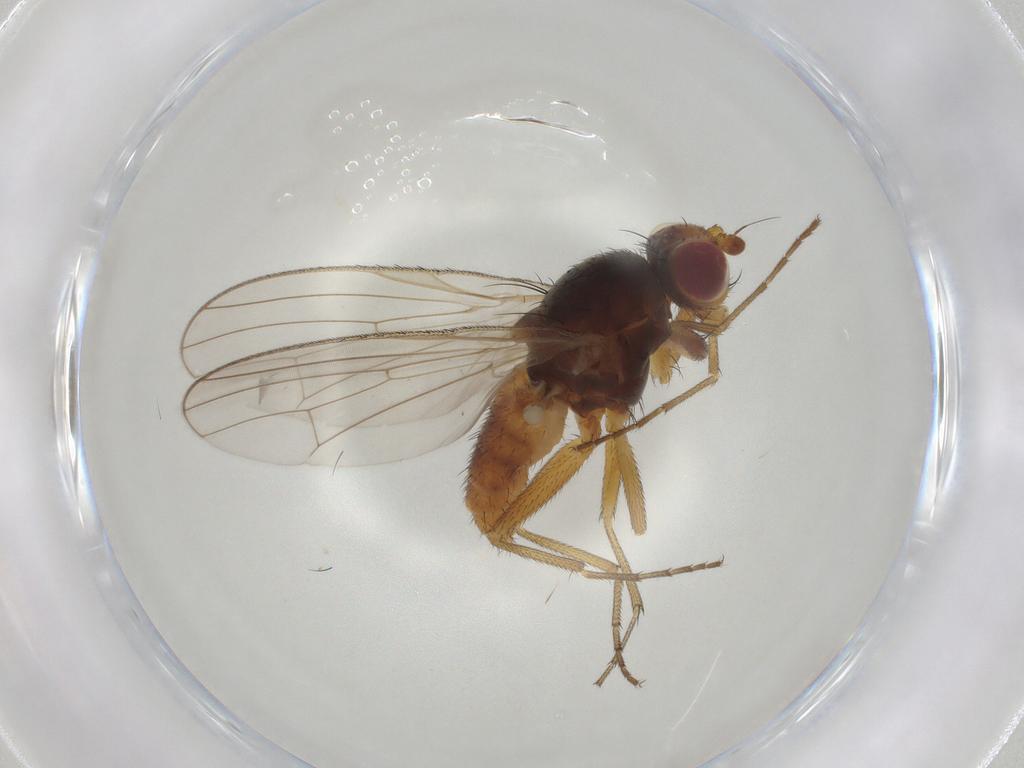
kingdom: Animalia
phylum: Arthropoda
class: Insecta
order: Diptera
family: Heleomyzidae
